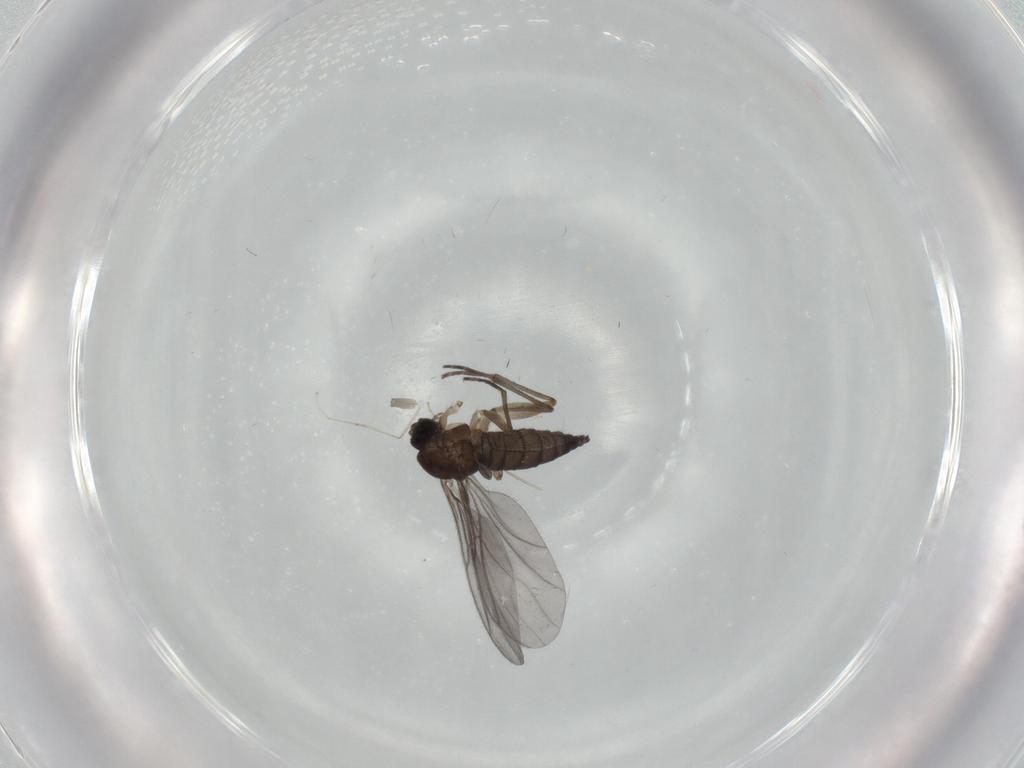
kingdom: Animalia
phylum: Arthropoda
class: Insecta
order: Diptera
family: Sciaridae
